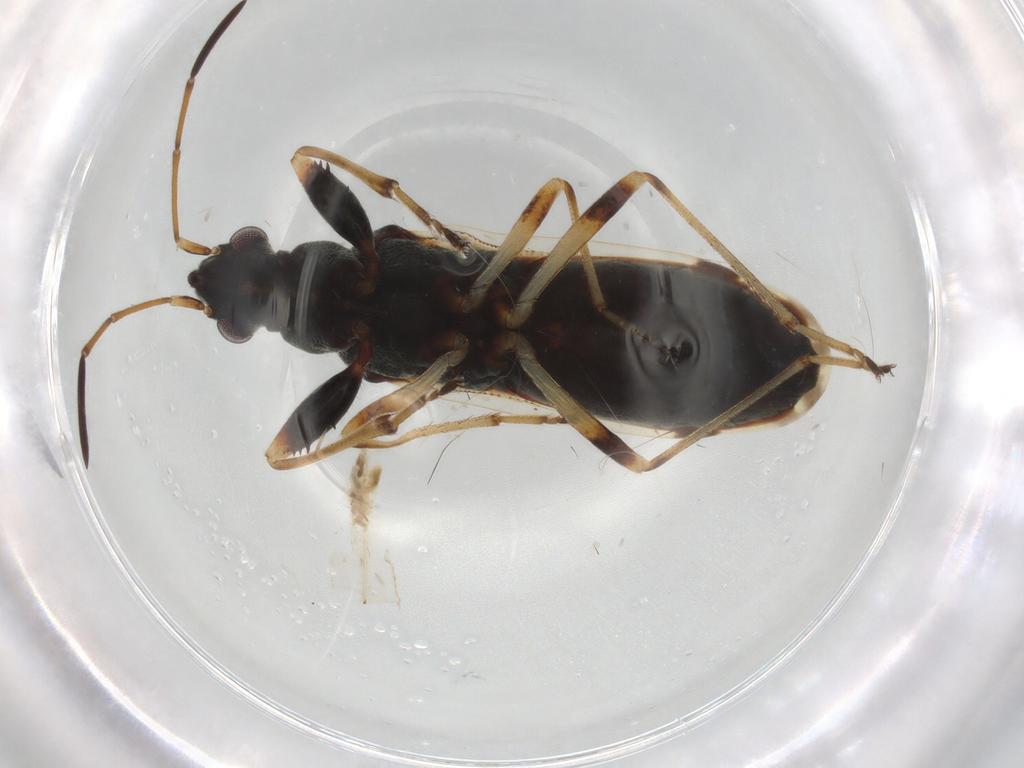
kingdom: Animalia
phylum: Arthropoda
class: Insecta
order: Hemiptera
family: Rhyparochromidae
